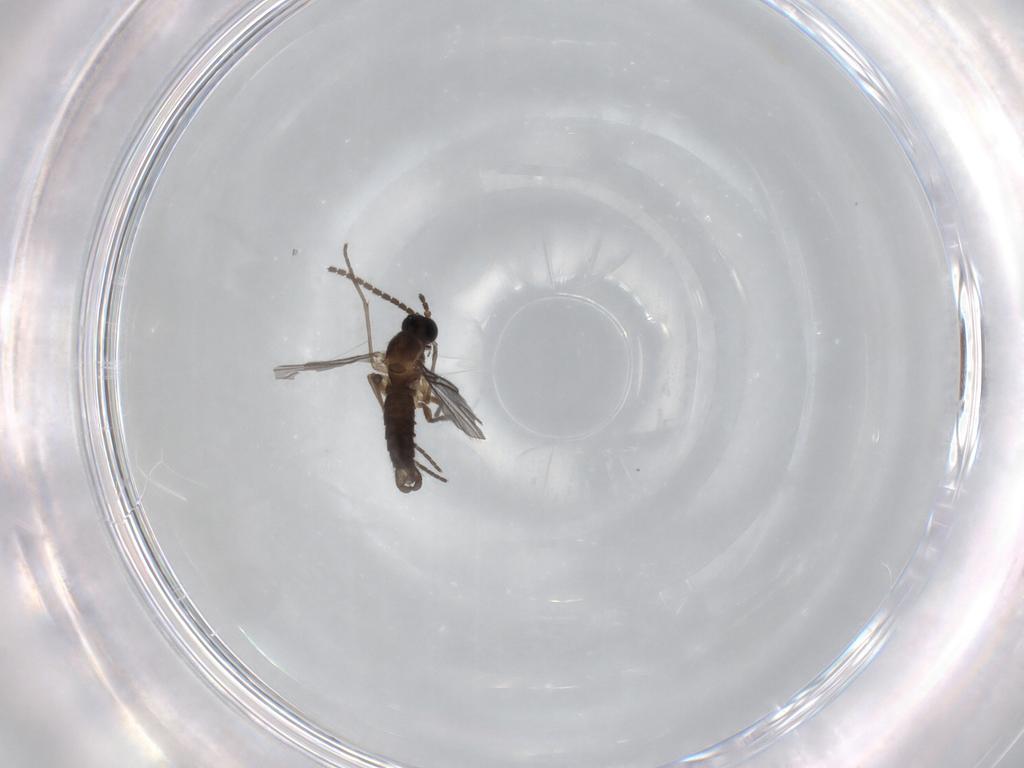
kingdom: Animalia
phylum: Arthropoda
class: Insecta
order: Diptera
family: Sciaridae
